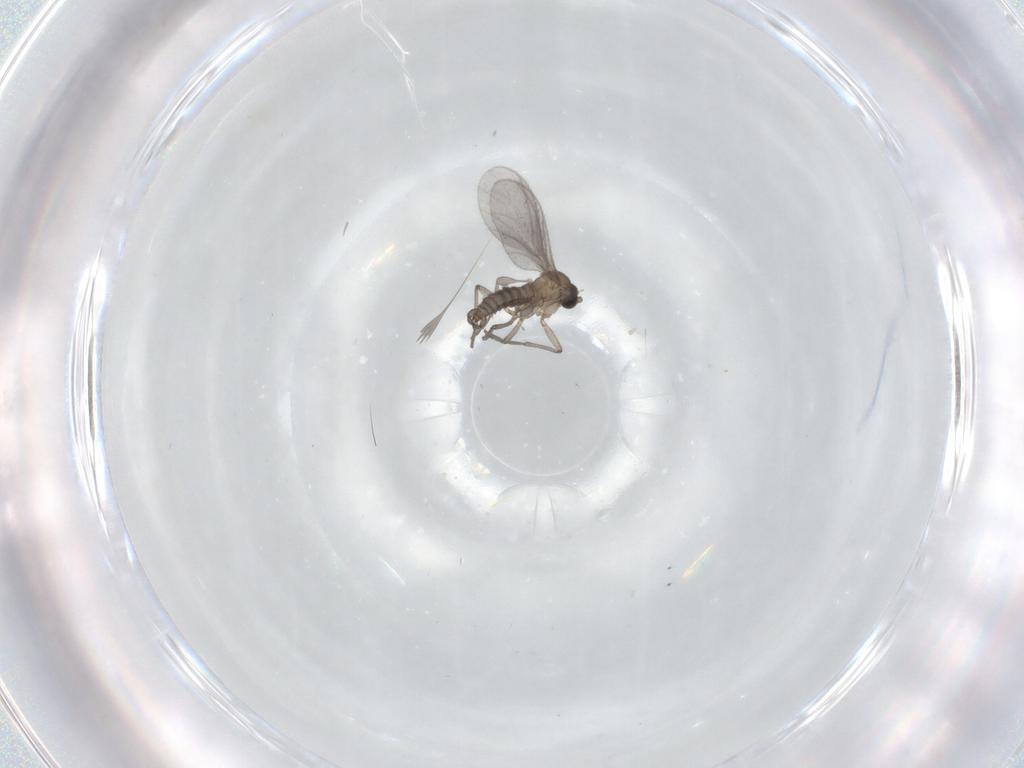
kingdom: Animalia
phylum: Arthropoda
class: Insecta
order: Diptera
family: Sciaridae
